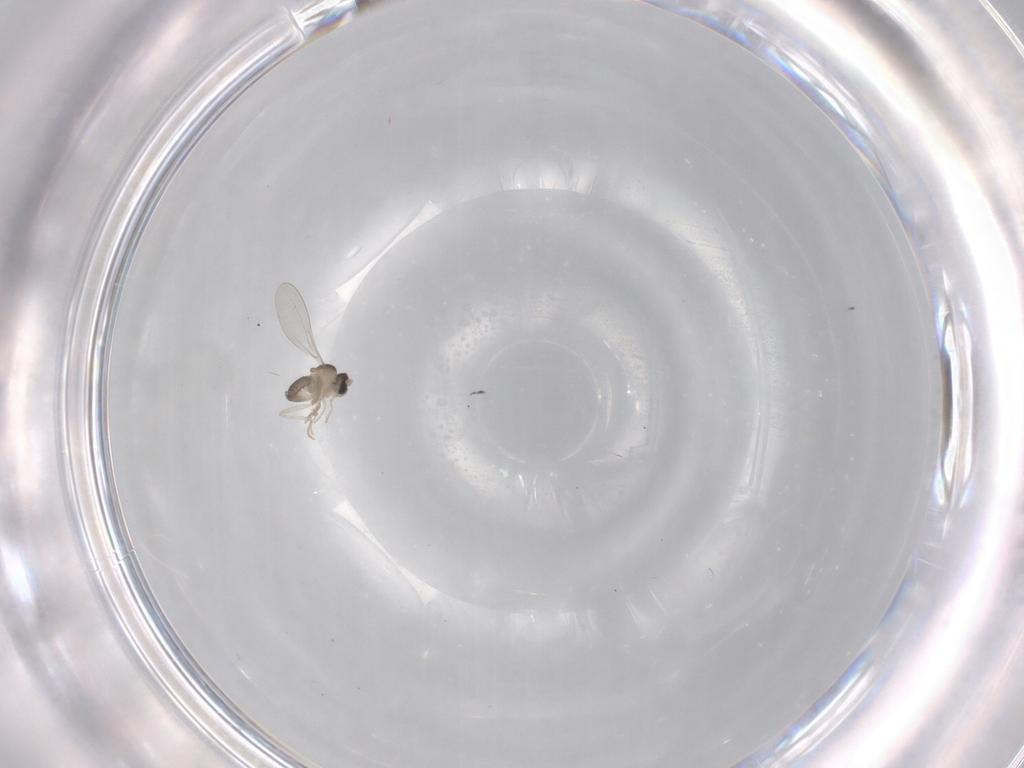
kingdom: Animalia
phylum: Arthropoda
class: Insecta
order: Diptera
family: Cecidomyiidae
